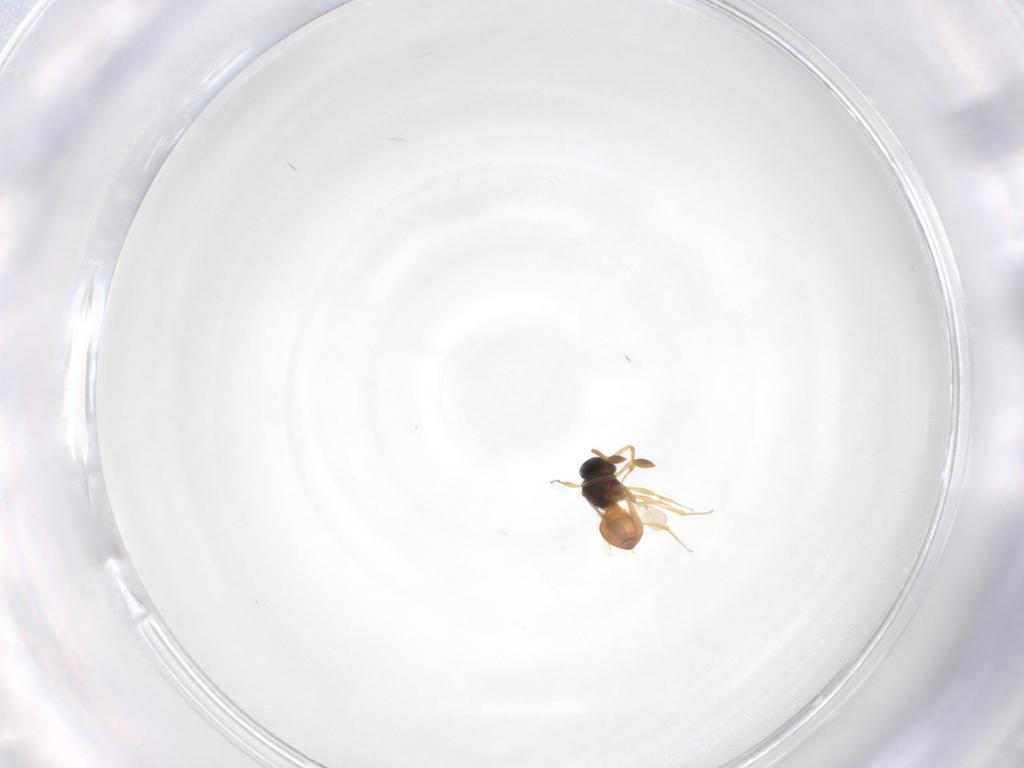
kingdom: Animalia
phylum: Arthropoda
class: Insecta
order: Hymenoptera
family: Scelionidae
